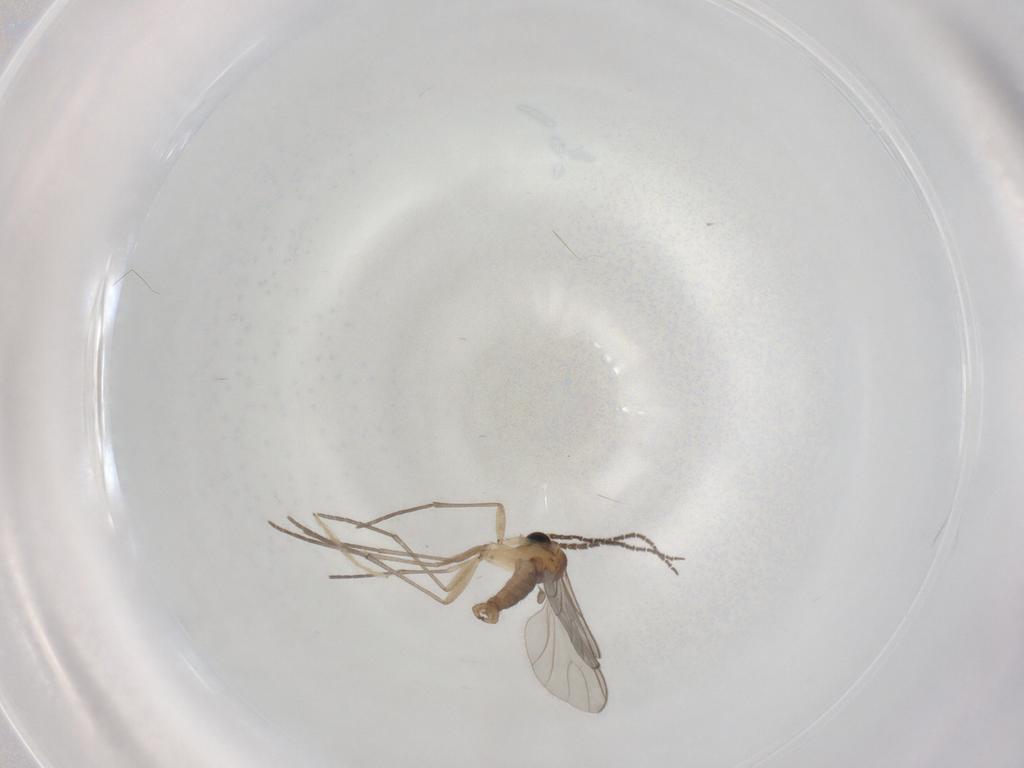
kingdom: Animalia
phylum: Arthropoda
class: Insecta
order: Diptera
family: Sciaridae
